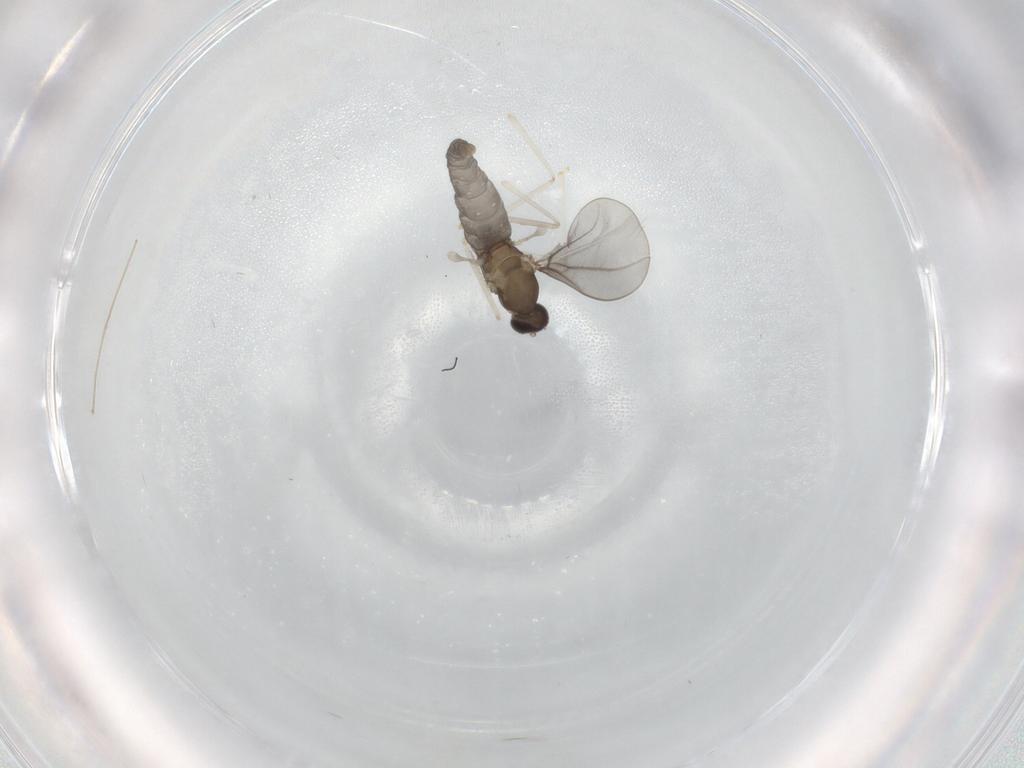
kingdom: Animalia
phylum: Arthropoda
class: Insecta
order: Diptera
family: Cecidomyiidae
